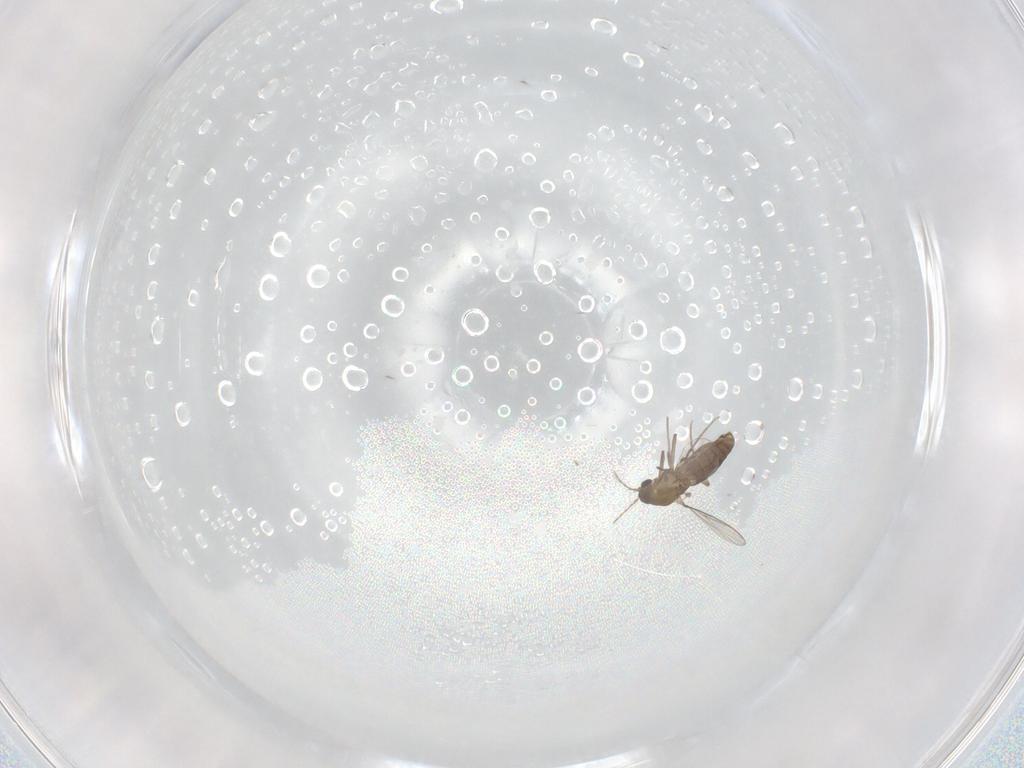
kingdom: Animalia
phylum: Arthropoda
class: Insecta
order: Diptera
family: Chironomidae
